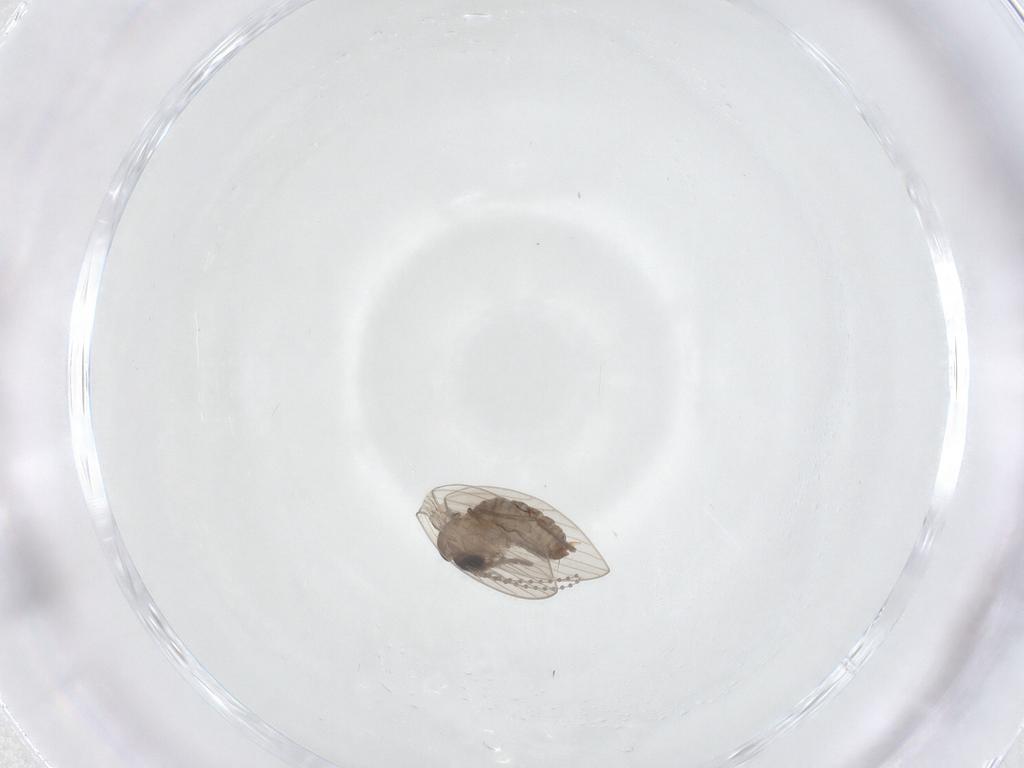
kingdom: Animalia
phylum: Arthropoda
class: Insecta
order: Diptera
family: Psychodidae
